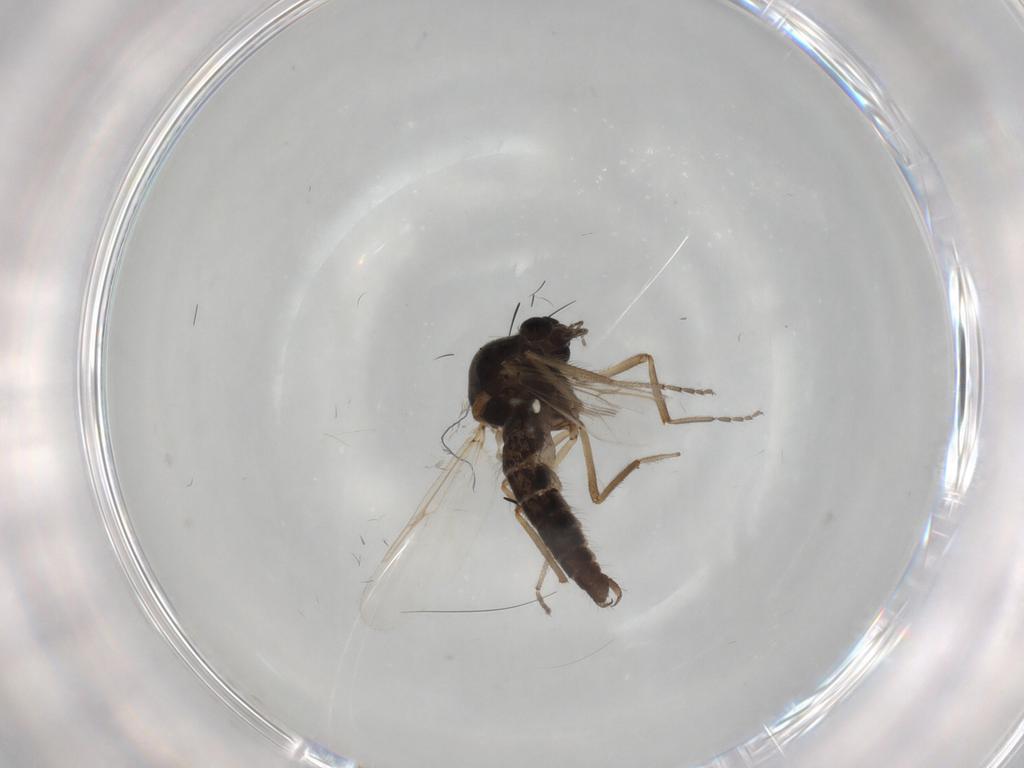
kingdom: Animalia
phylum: Arthropoda
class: Insecta
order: Diptera
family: Ceratopogonidae
